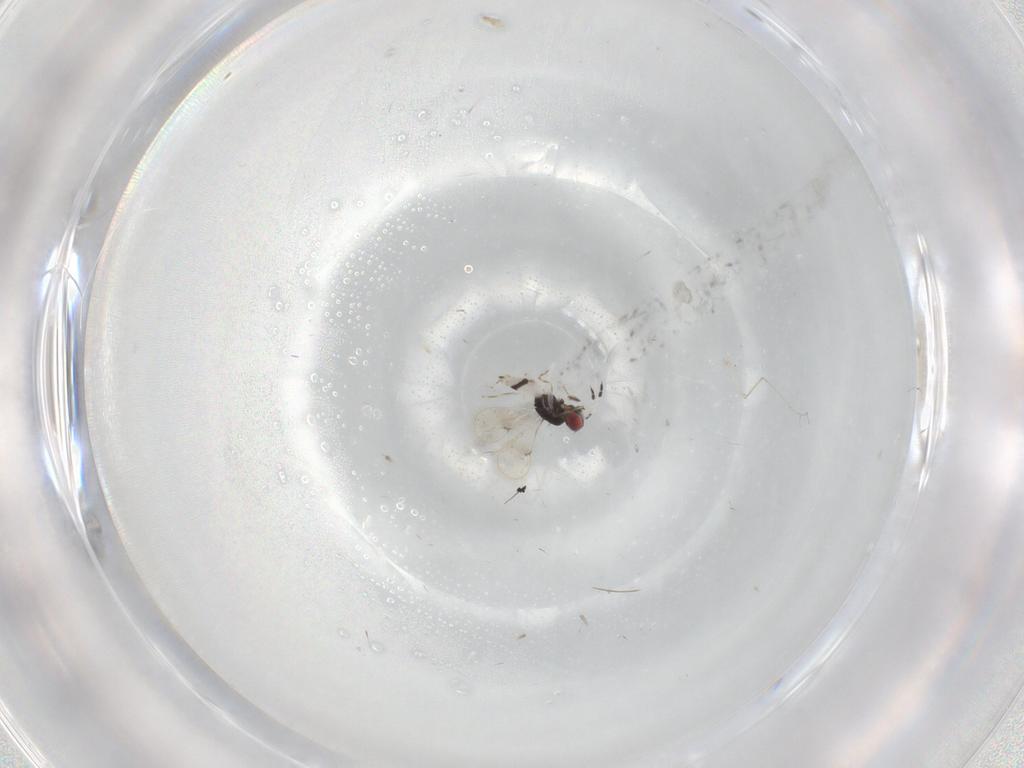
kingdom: Animalia
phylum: Arthropoda
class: Insecta
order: Hymenoptera
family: Eulophidae
